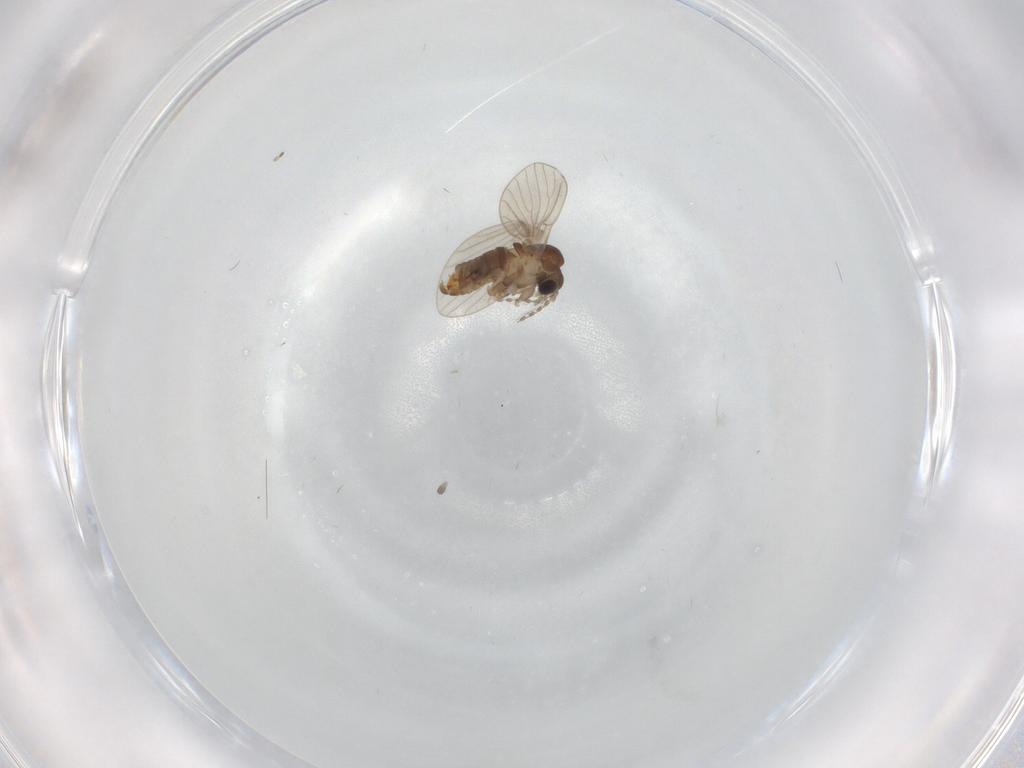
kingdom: Animalia
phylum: Arthropoda
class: Insecta
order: Diptera
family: Cecidomyiidae
